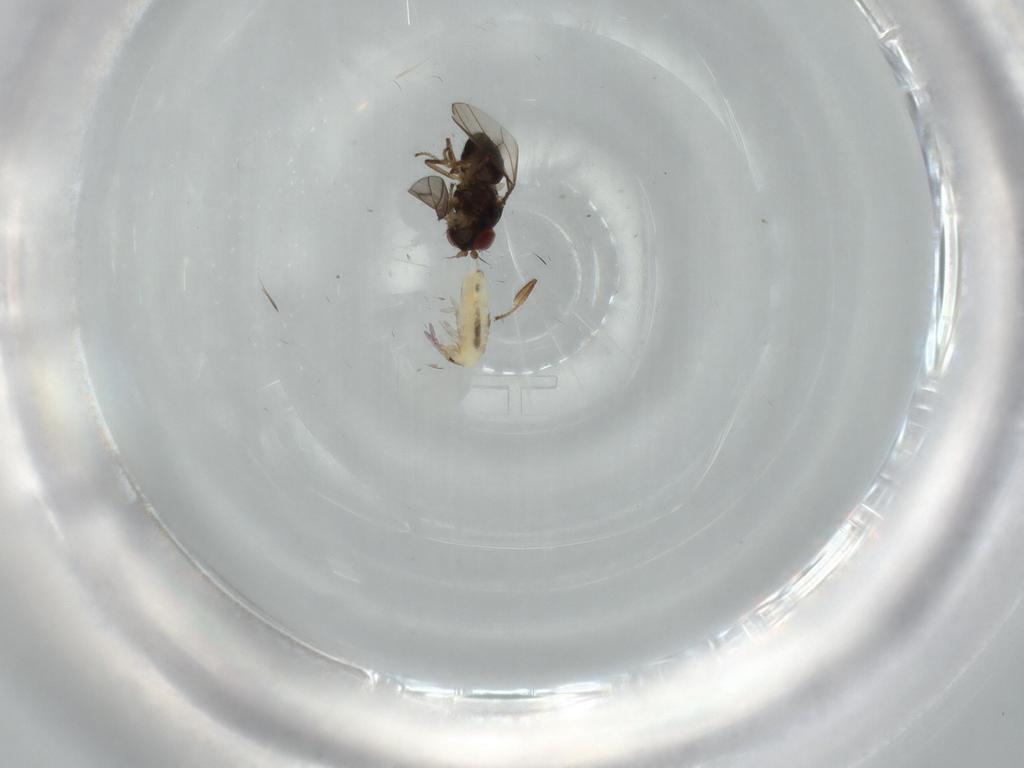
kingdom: Animalia
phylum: Arthropoda
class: Insecta
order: Diptera
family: Ephydridae
